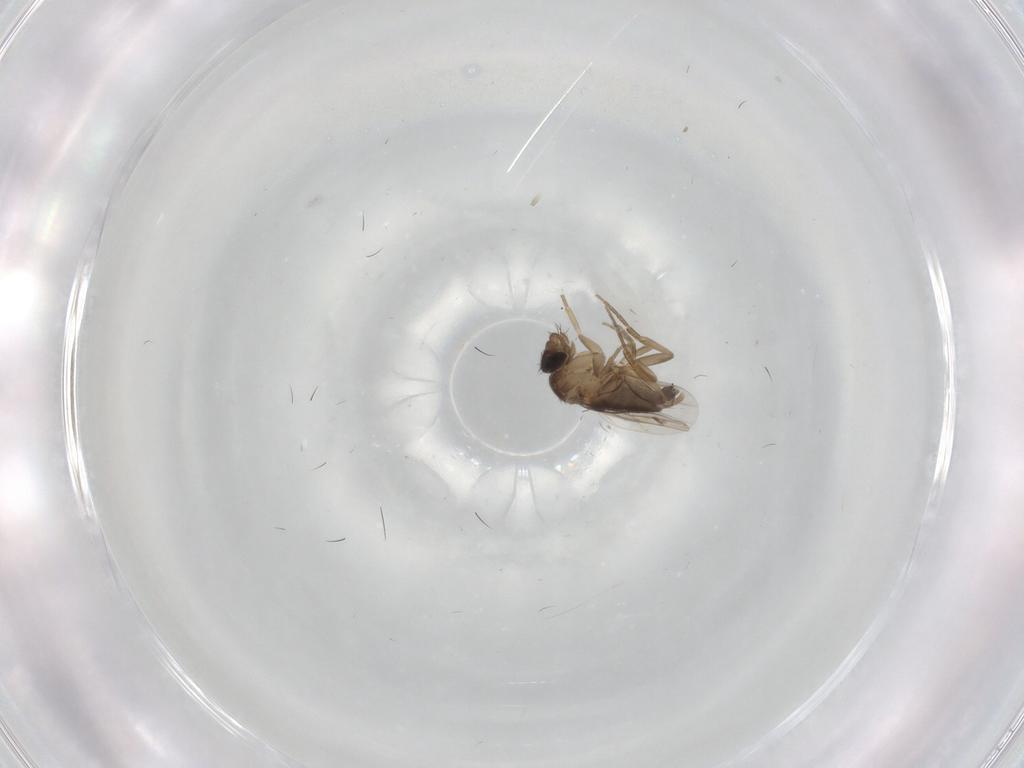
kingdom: Animalia
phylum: Arthropoda
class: Insecta
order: Diptera
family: Phoridae
